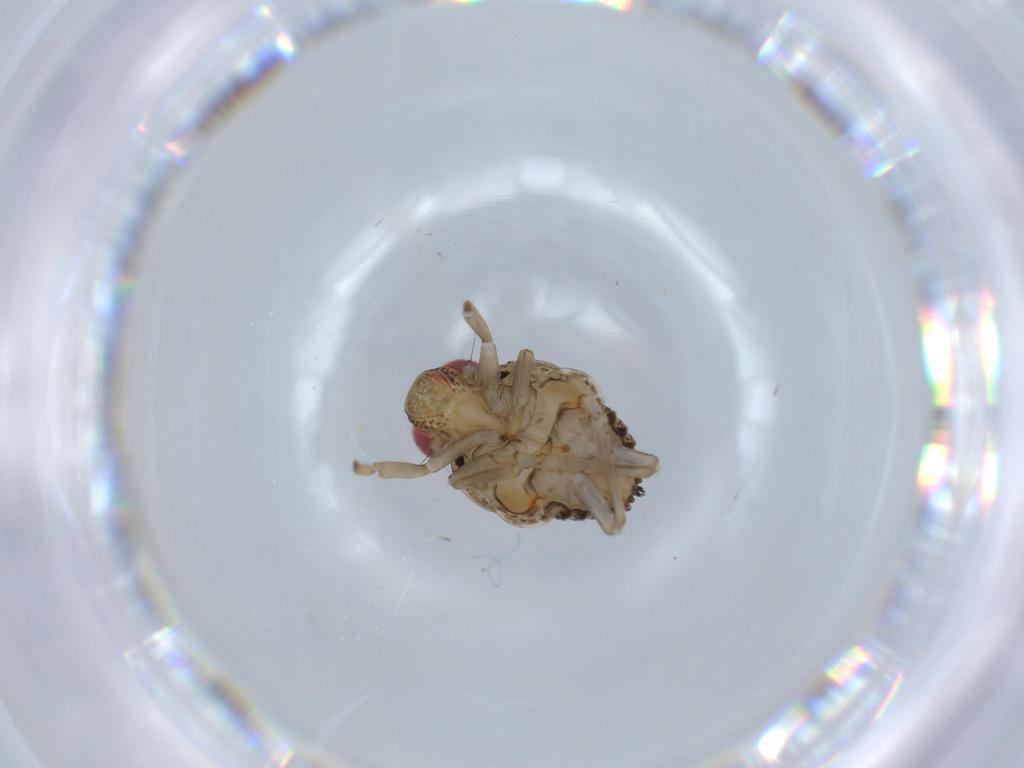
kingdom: Animalia
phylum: Arthropoda
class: Insecta
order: Hemiptera
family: Issidae
